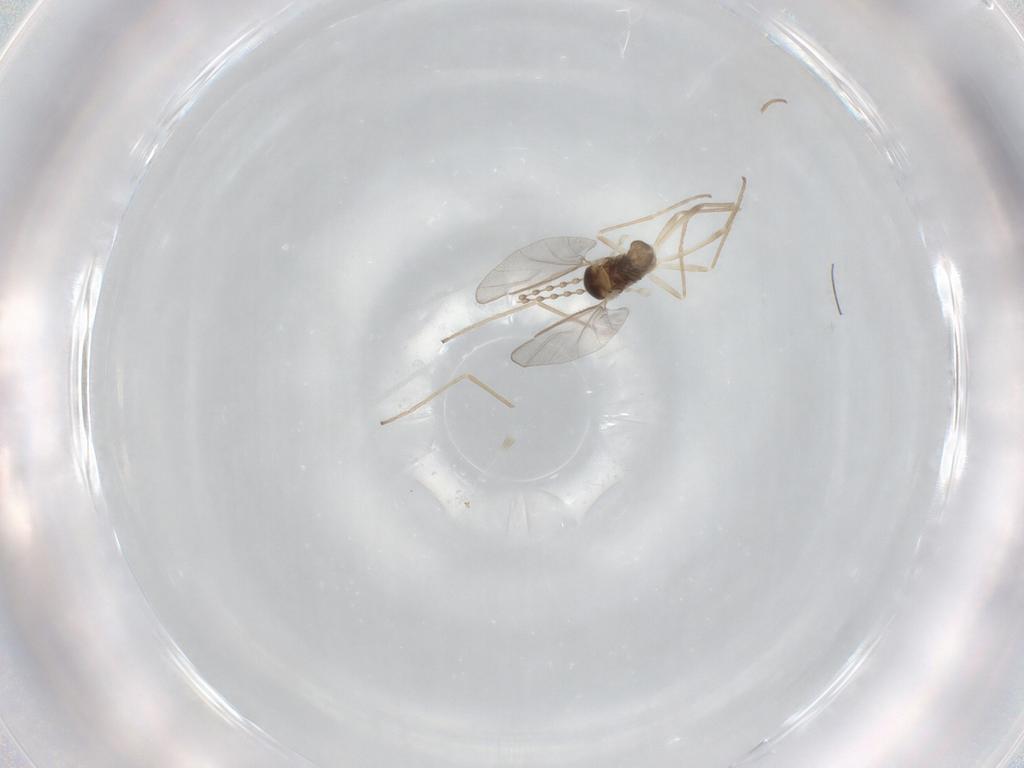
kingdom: Animalia
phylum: Arthropoda
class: Insecta
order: Diptera
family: Cecidomyiidae
